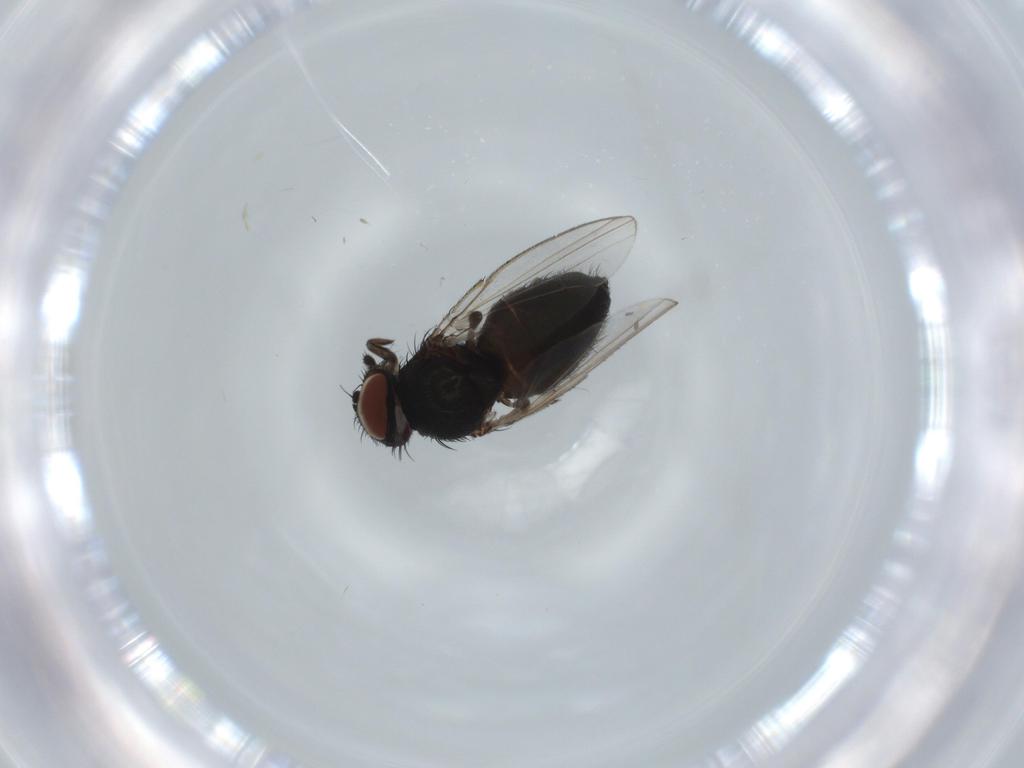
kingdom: Animalia
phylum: Arthropoda
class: Insecta
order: Diptera
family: Milichiidae
